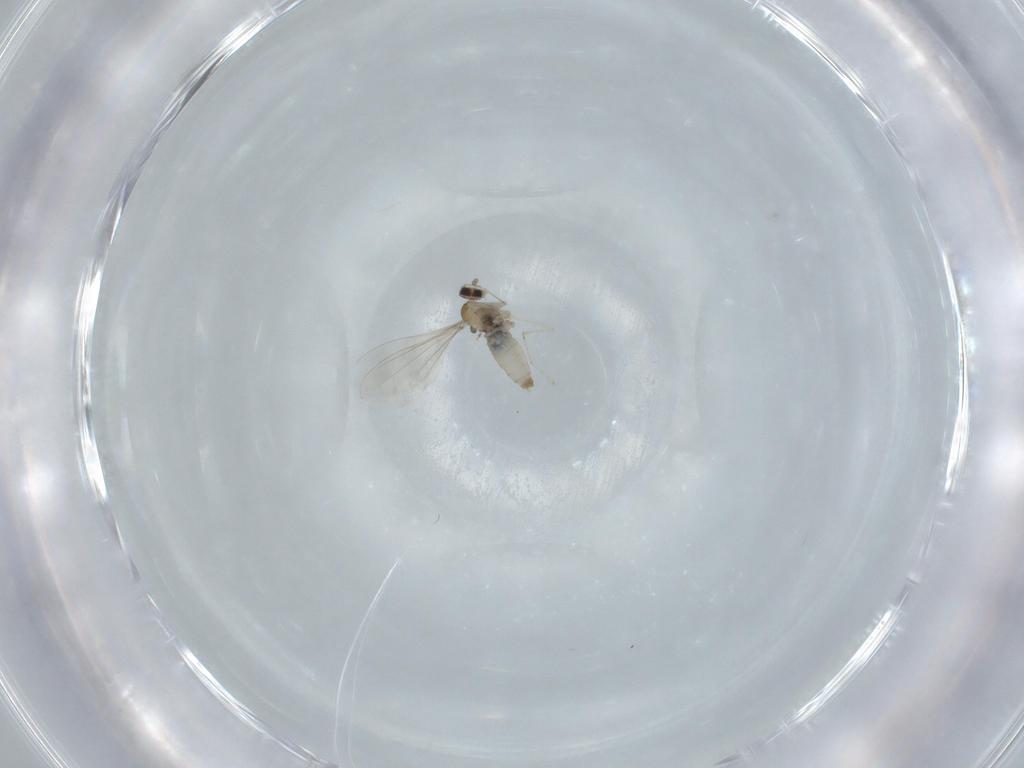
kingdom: Animalia
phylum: Arthropoda
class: Insecta
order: Diptera
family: Cecidomyiidae
